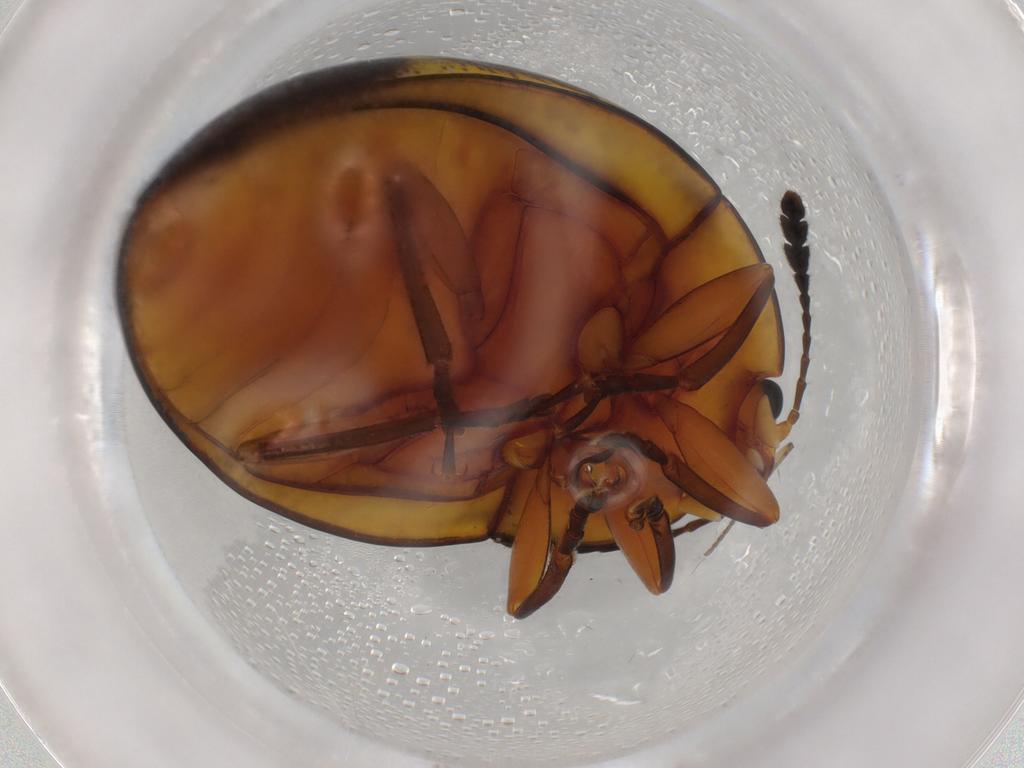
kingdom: Animalia
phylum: Arthropoda
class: Insecta
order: Coleoptera
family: Erotylidae
